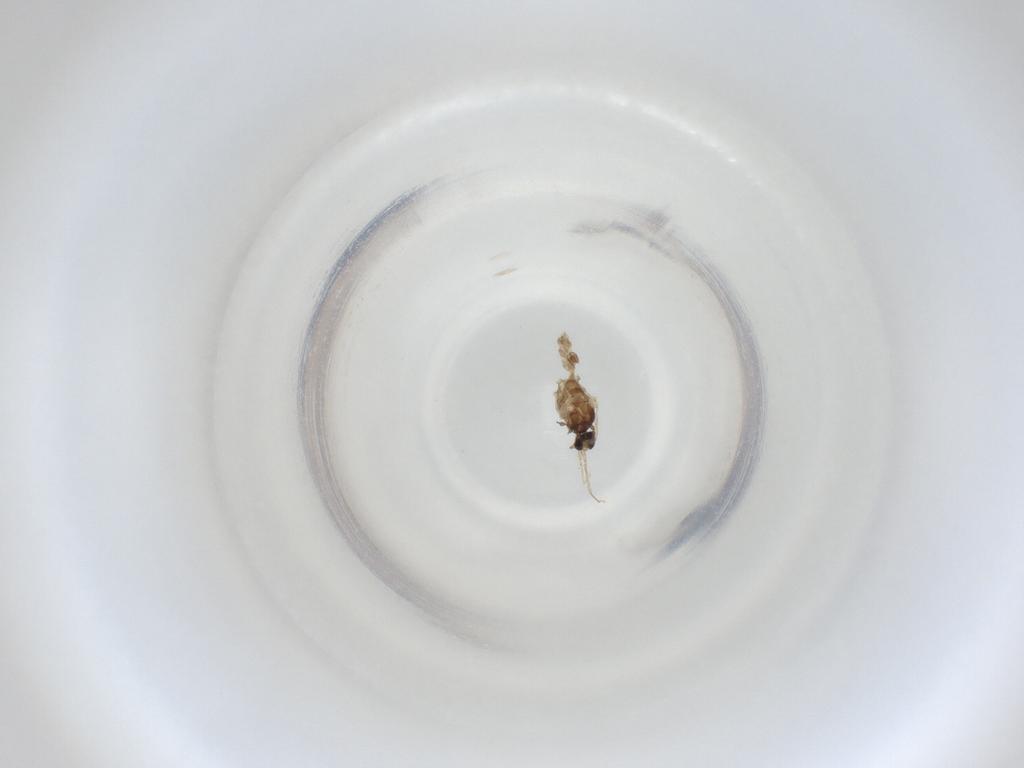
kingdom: Animalia
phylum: Arthropoda
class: Insecta
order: Diptera
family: Cecidomyiidae
